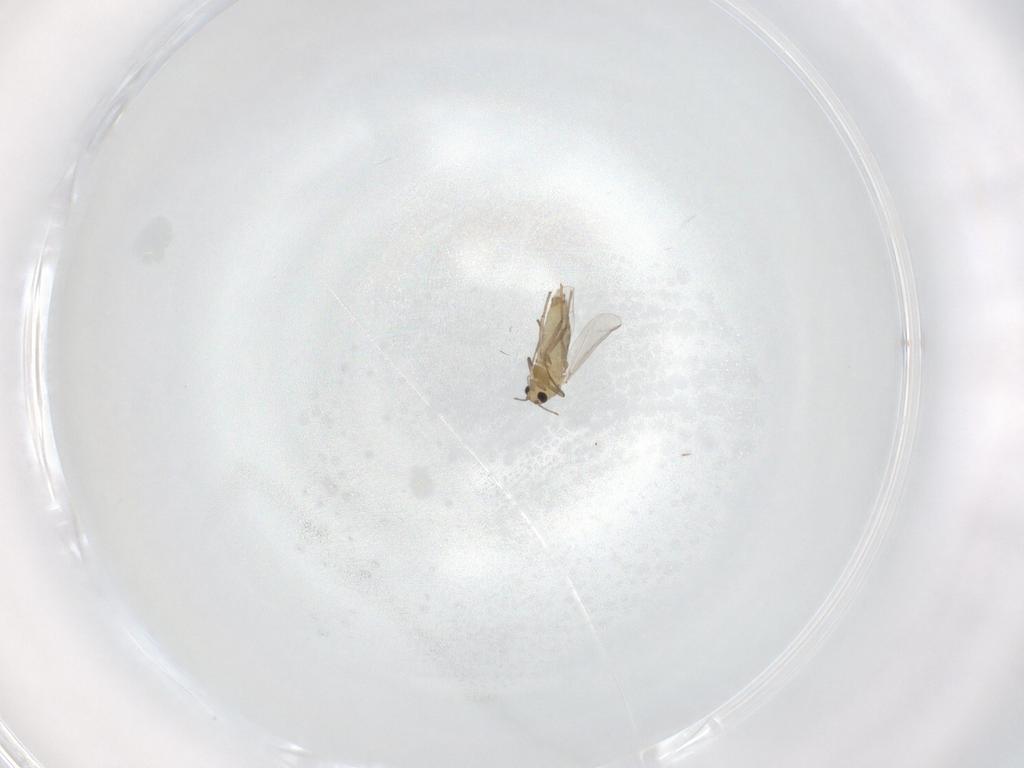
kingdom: Animalia
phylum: Arthropoda
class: Insecta
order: Diptera
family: Chironomidae
